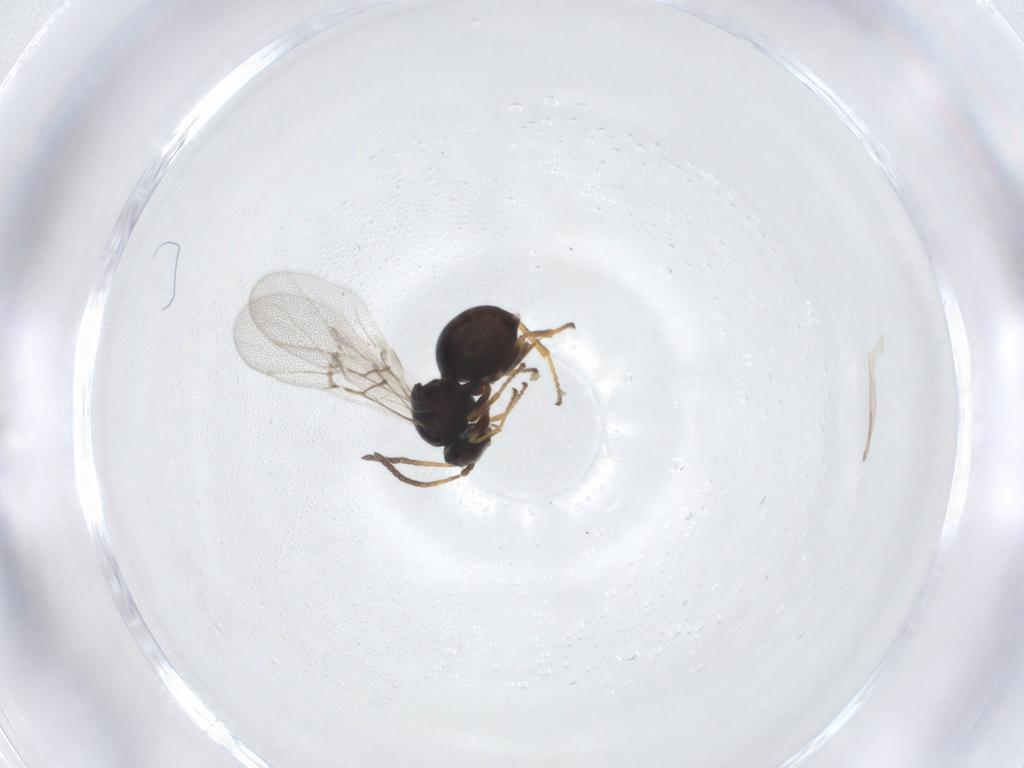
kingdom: Animalia
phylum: Arthropoda
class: Insecta
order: Hymenoptera
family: Cynipidae
